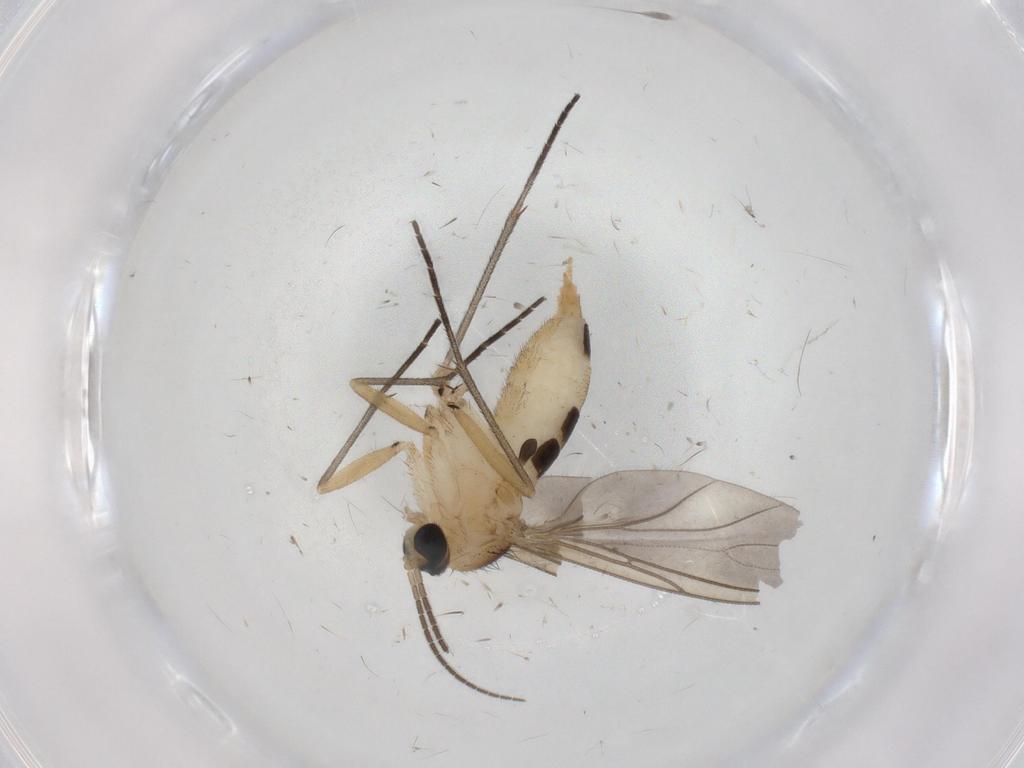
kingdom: Animalia
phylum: Arthropoda
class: Insecta
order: Diptera
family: Sciaridae
